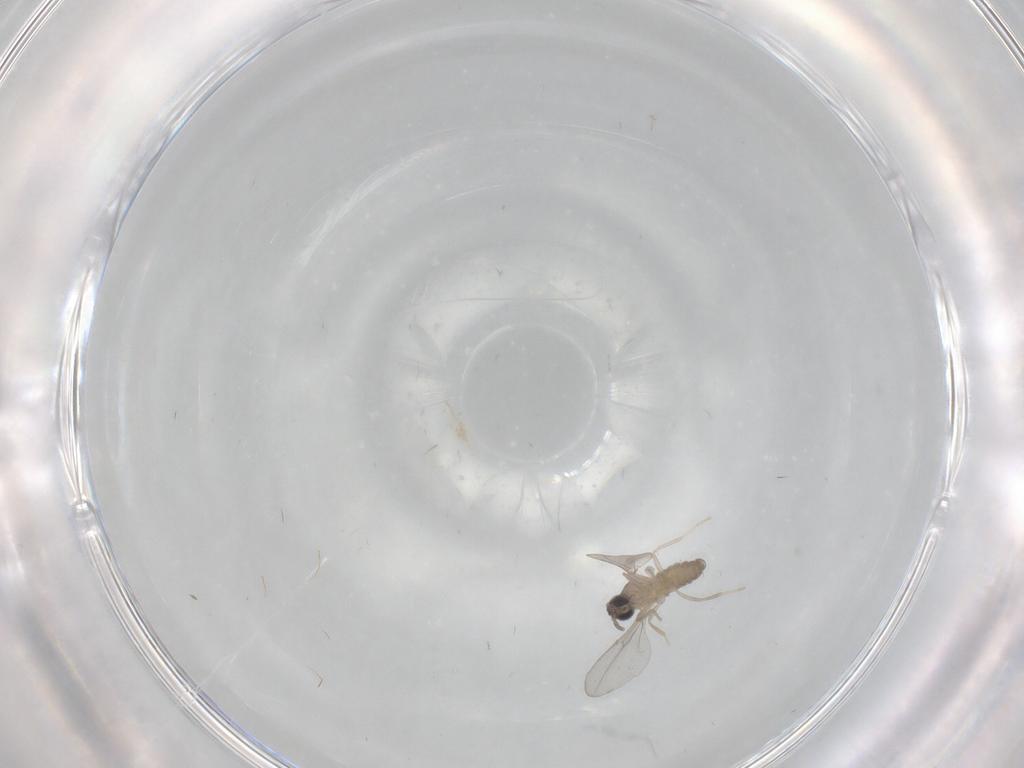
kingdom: Animalia
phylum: Arthropoda
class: Insecta
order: Diptera
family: Cecidomyiidae
